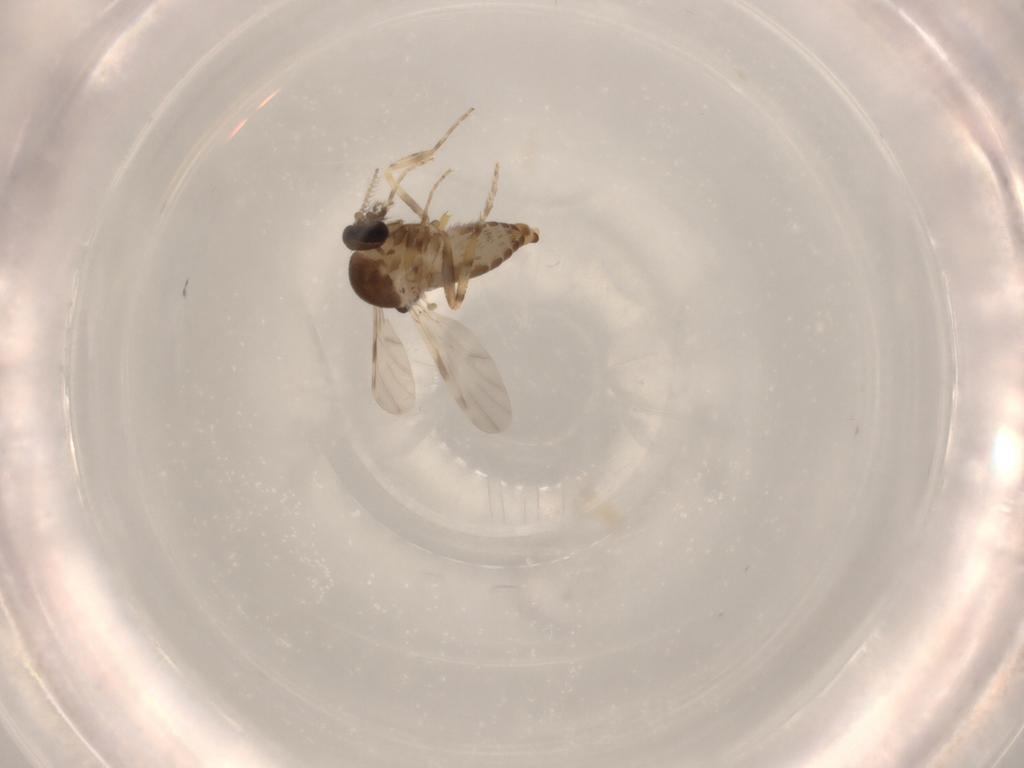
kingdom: Animalia
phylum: Arthropoda
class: Insecta
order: Diptera
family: Ceratopogonidae
